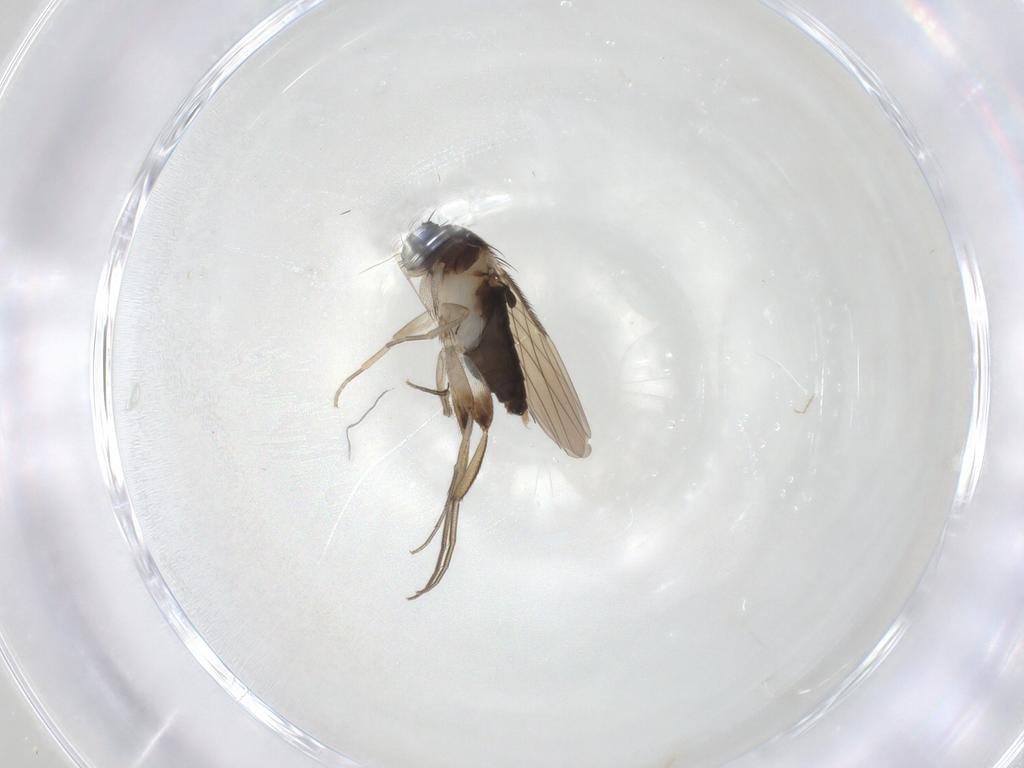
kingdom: Animalia
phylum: Arthropoda
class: Insecta
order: Diptera
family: Phoridae
